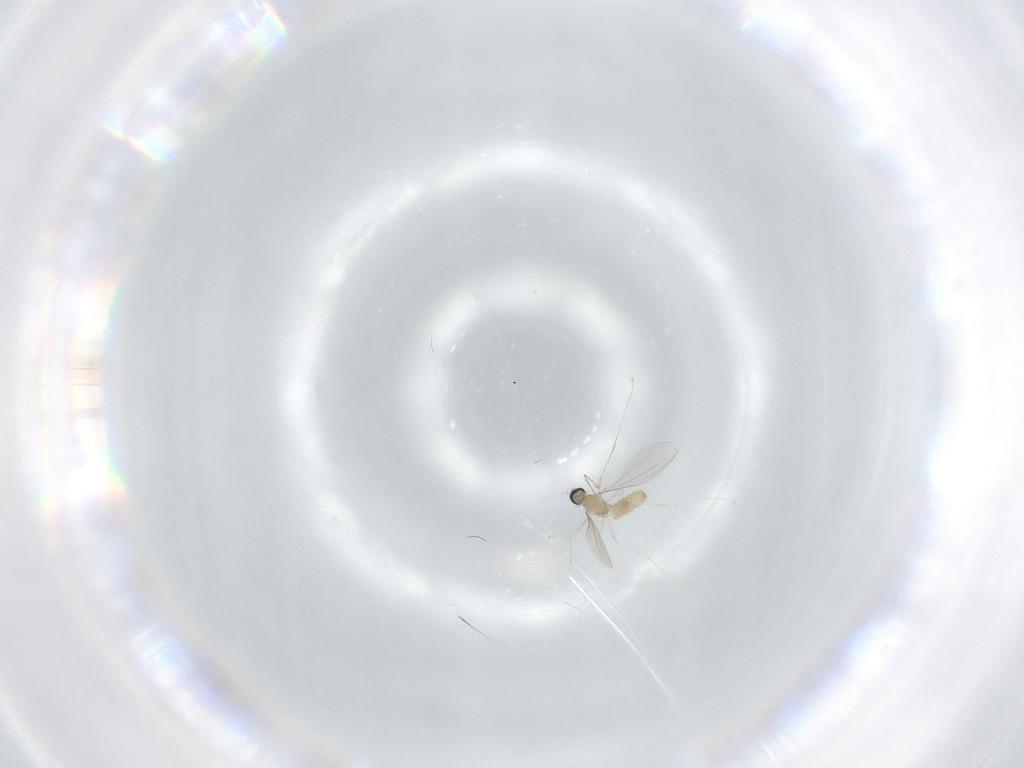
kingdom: Animalia
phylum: Arthropoda
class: Insecta
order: Diptera
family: Cecidomyiidae
